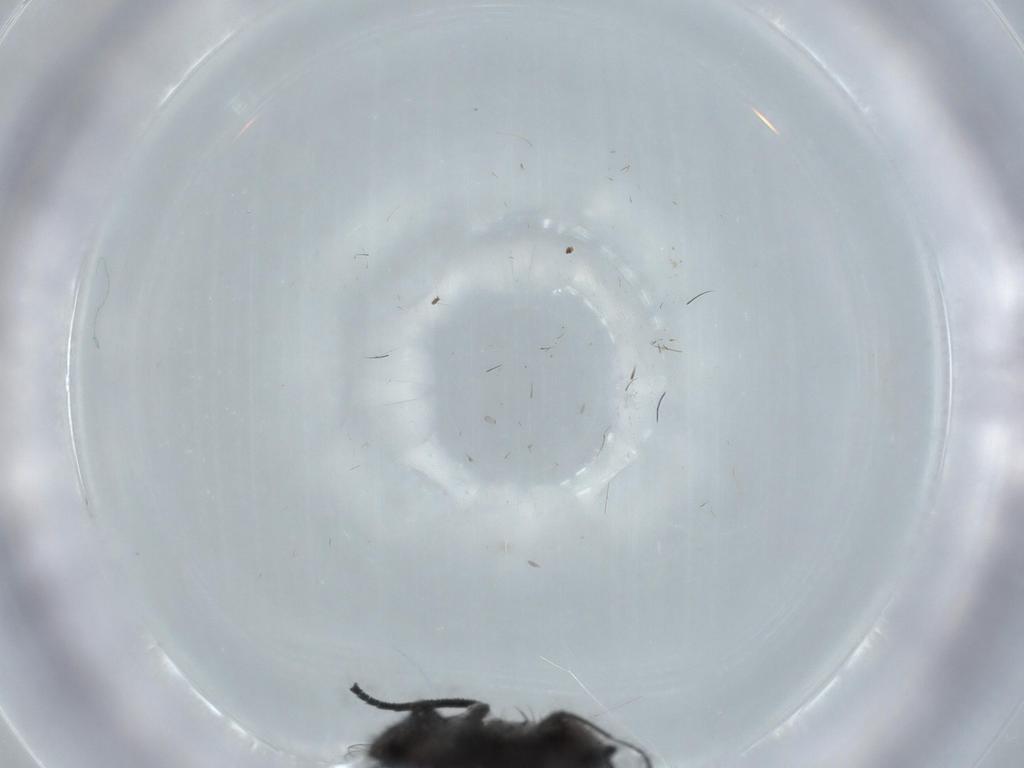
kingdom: Animalia
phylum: Arthropoda
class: Insecta
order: Diptera
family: Milichiidae
